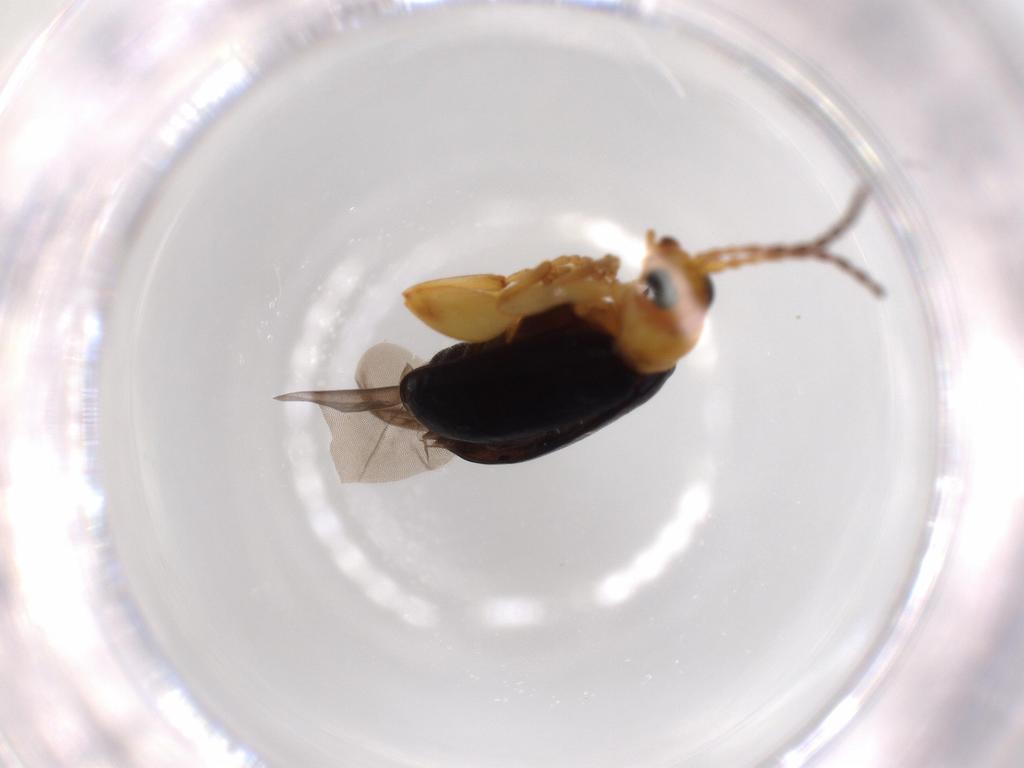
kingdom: Animalia
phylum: Arthropoda
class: Insecta
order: Coleoptera
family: Chrysomelidae
